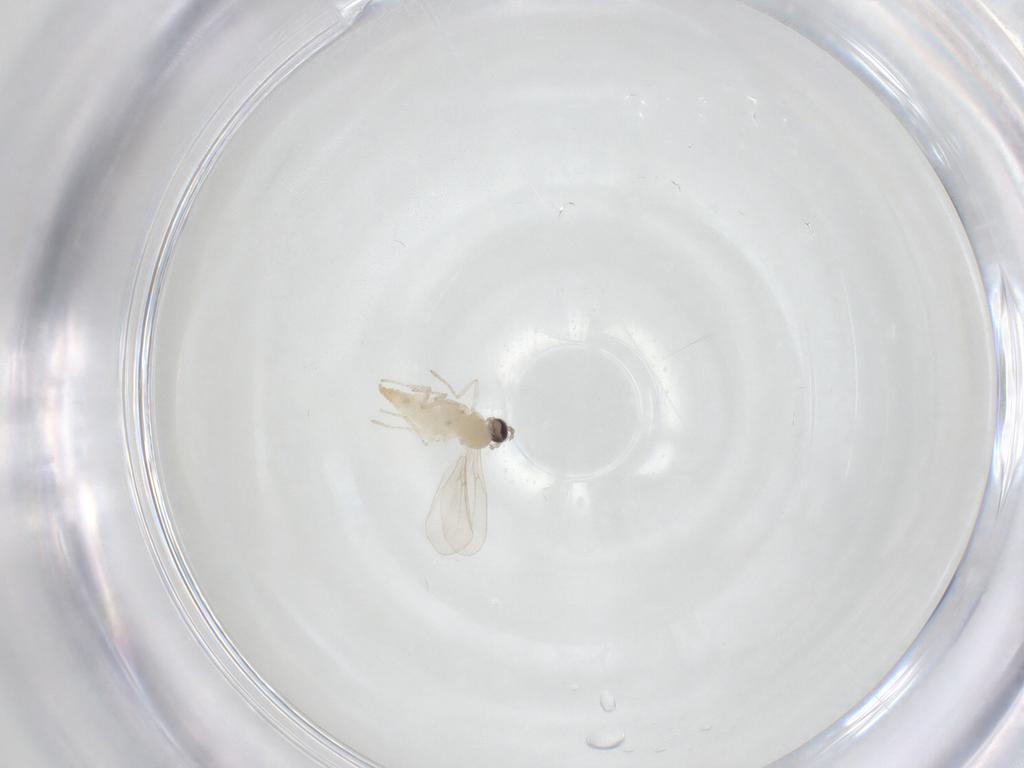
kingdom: Animalia
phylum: Arthropoda
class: Insecta
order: Diptera
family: Cecidomyiidae
